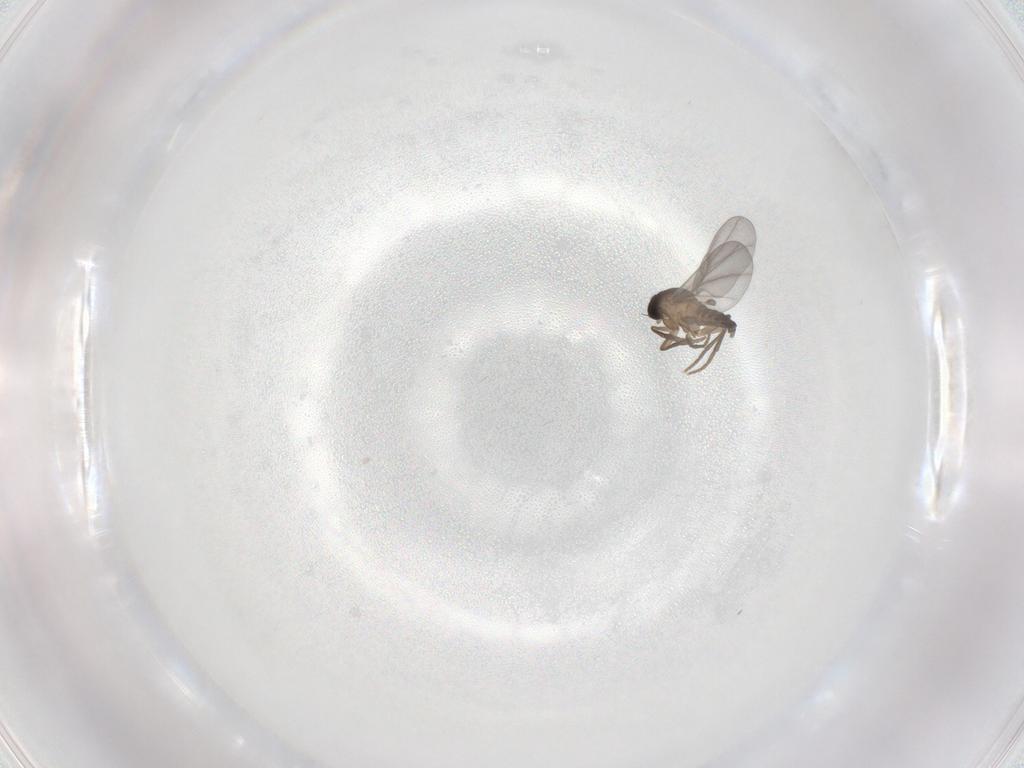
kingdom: Animalia
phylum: Arthropoda
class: Insecta
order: Diptera
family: Phoridae
